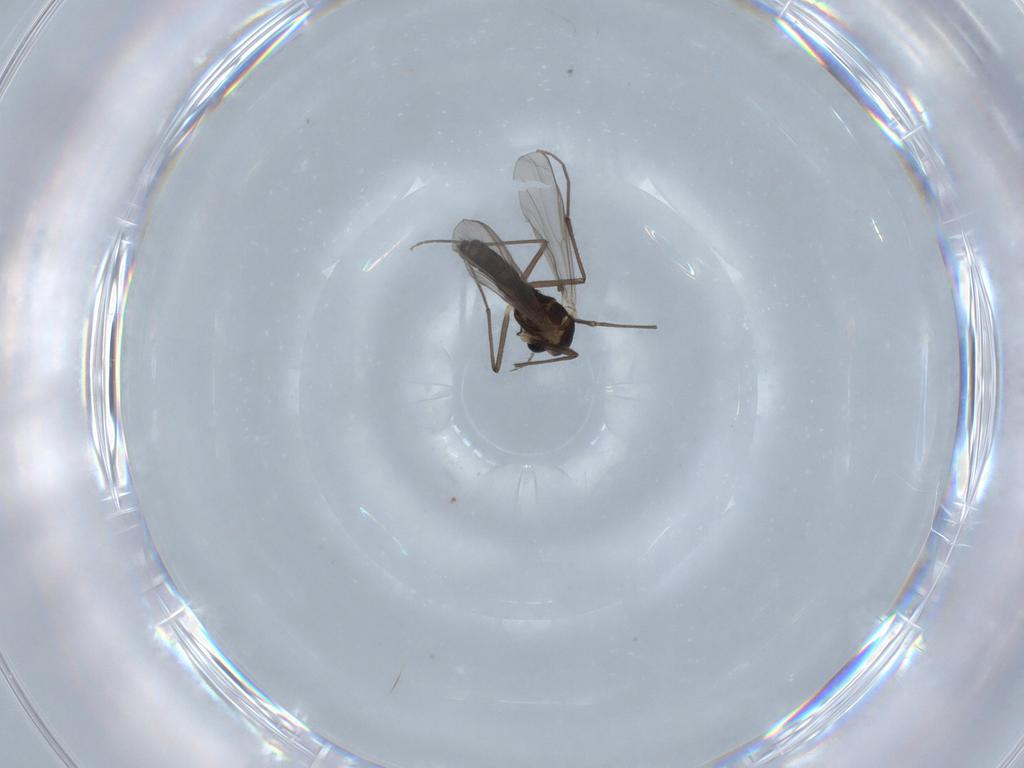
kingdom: Animalia
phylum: Arthropoda
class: Insecta
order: Diptera
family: Chironomidae
